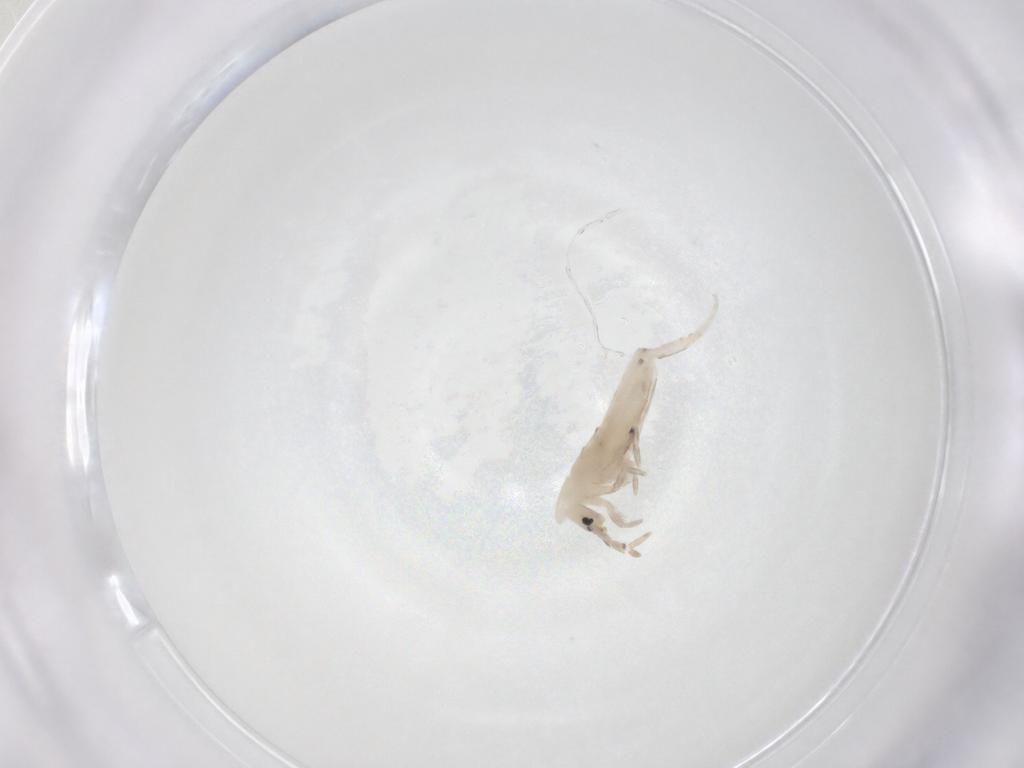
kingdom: Animalia
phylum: Arthropoda
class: Collembola
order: Entomobryomorpha
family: Entomobryidae
